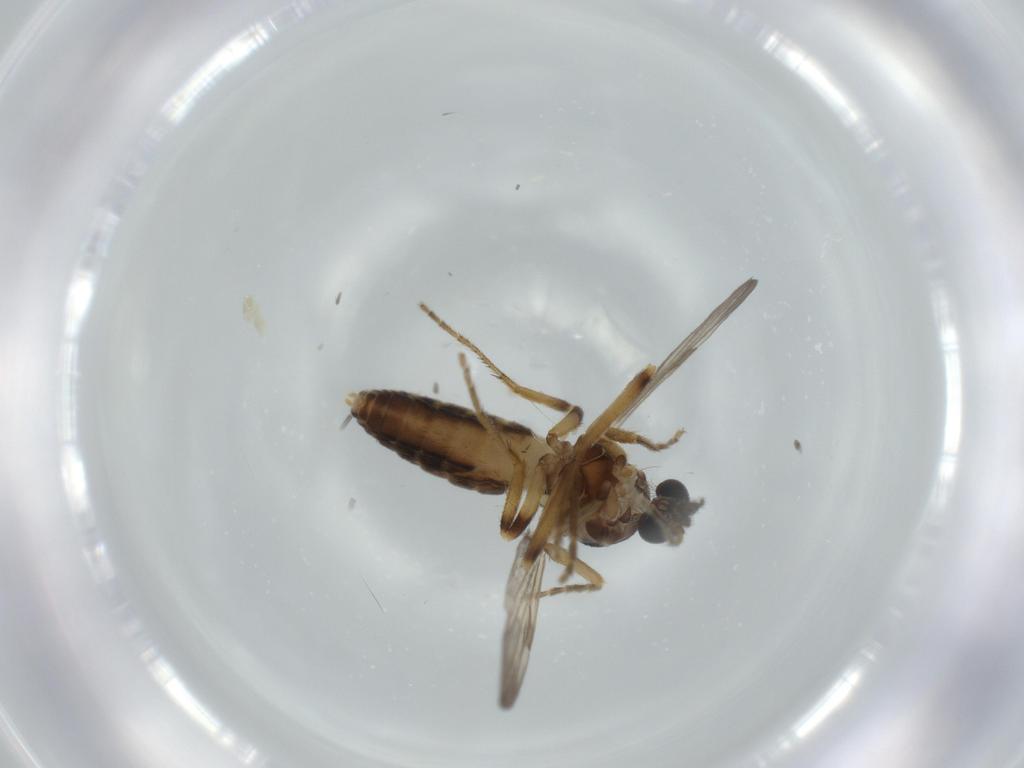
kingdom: Animalia
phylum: Arthropoda
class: Insecta
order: Diptera
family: Ceratopogonidae
